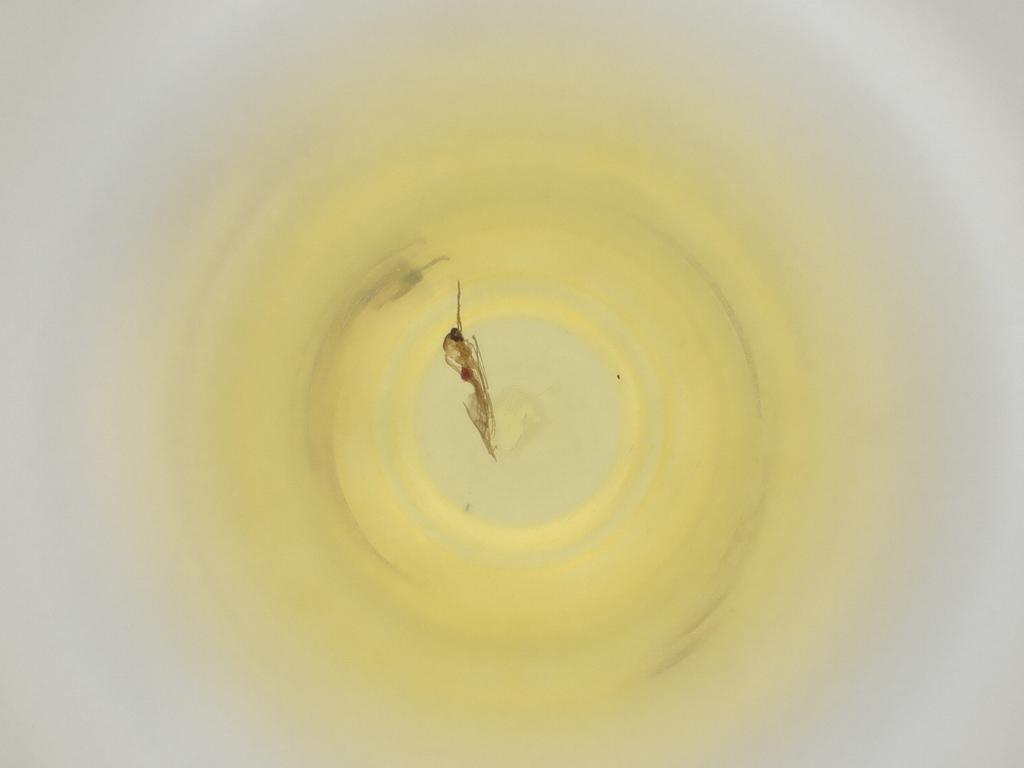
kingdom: Animalia
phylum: Arthropoda
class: Insecta
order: Diptera
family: Cecidomyiidae
